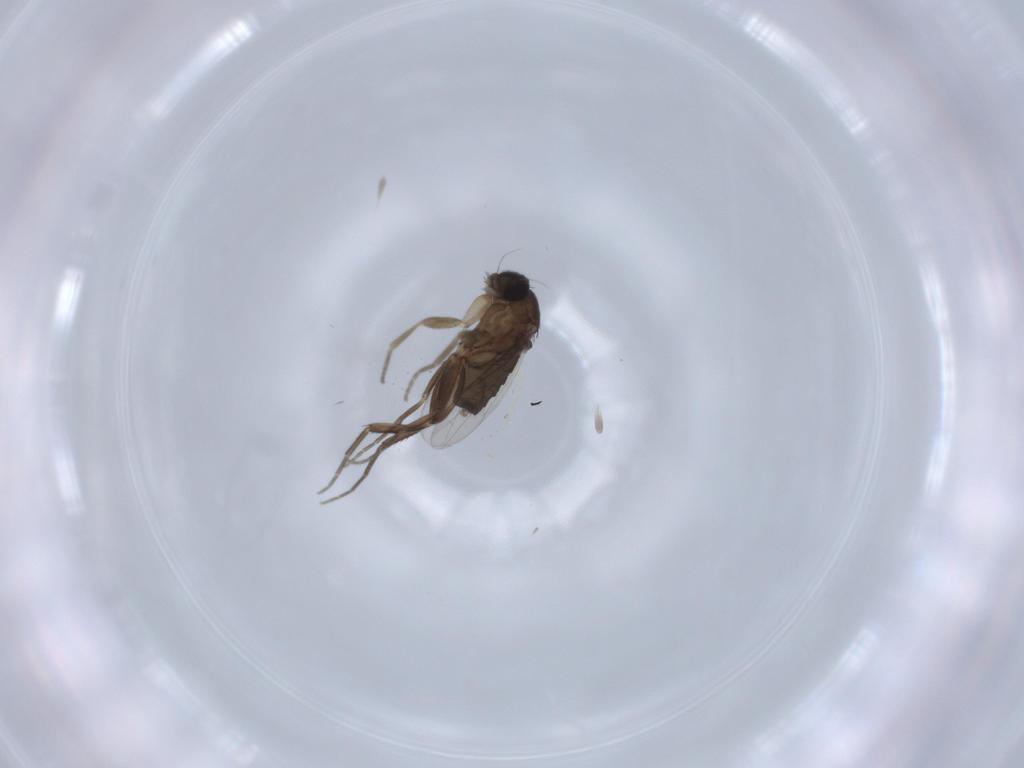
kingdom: Animalia
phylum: Arthropoda
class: Insecta
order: Diptera
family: Phoridae
